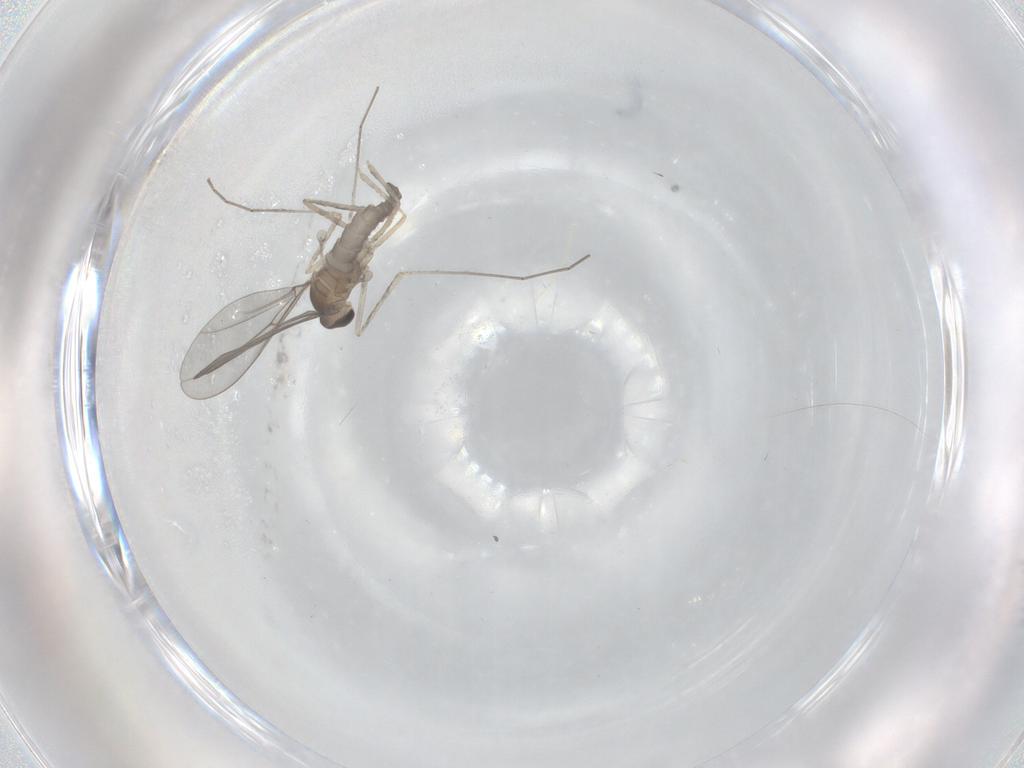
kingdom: Animalia
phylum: Arthropoda
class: Insecta
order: Diptera
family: Cecidomyiidae
